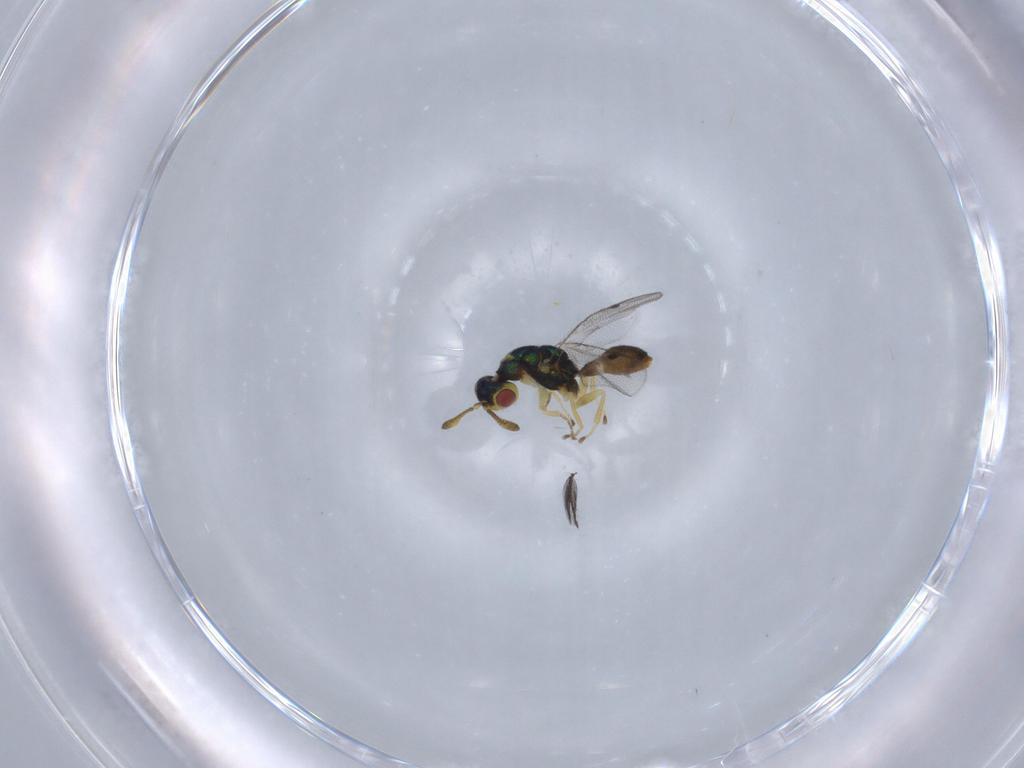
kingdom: Animalia
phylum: Arthropoda
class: Insecta
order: Hymenoptera
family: Megastigmidae
